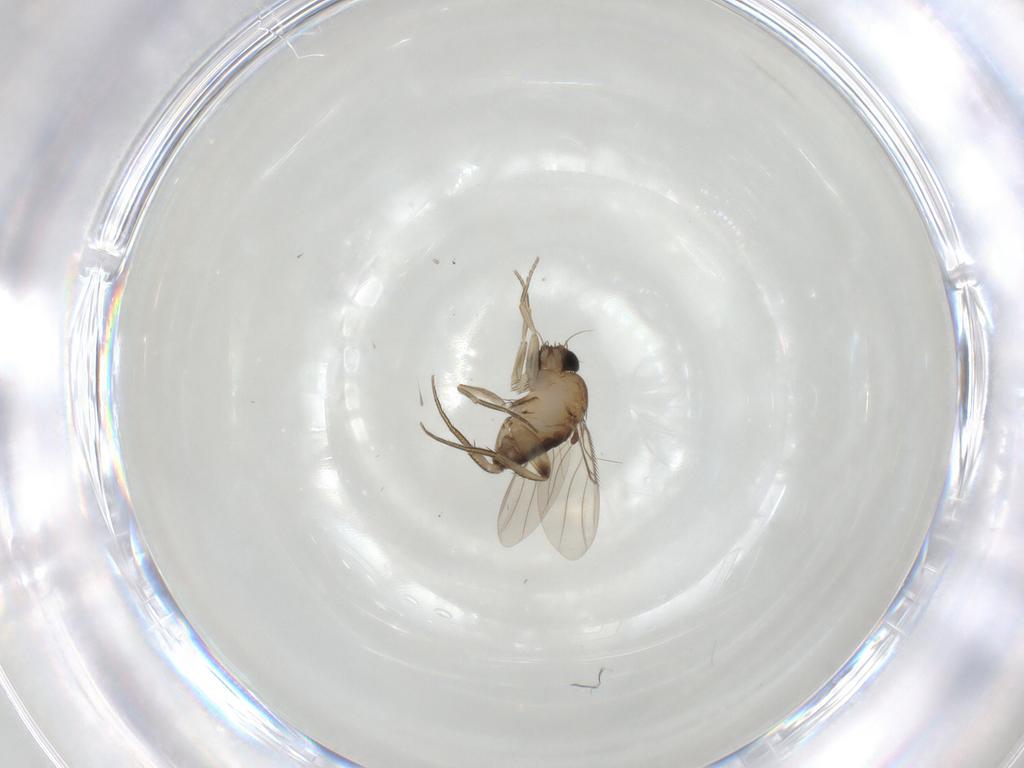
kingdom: Animalia
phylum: Arthropoda
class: Insecta
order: Diptera
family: Phoridae
